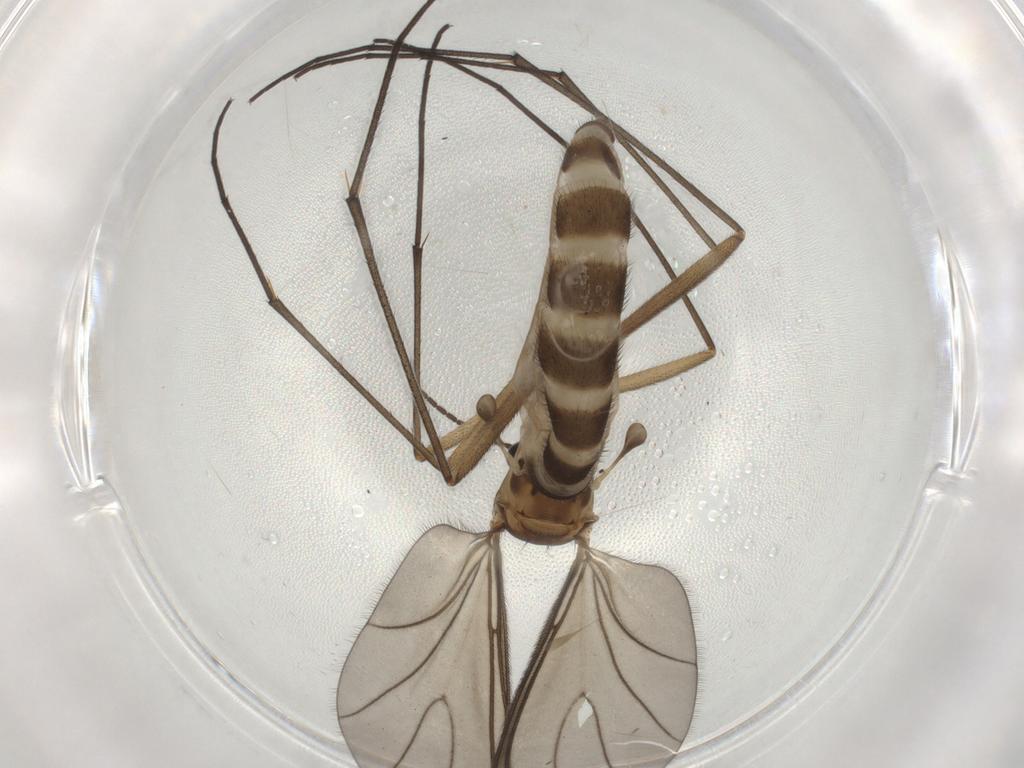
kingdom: Animalia
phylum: Arthropoda
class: Insecta
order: Diptera
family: Sciaridae
